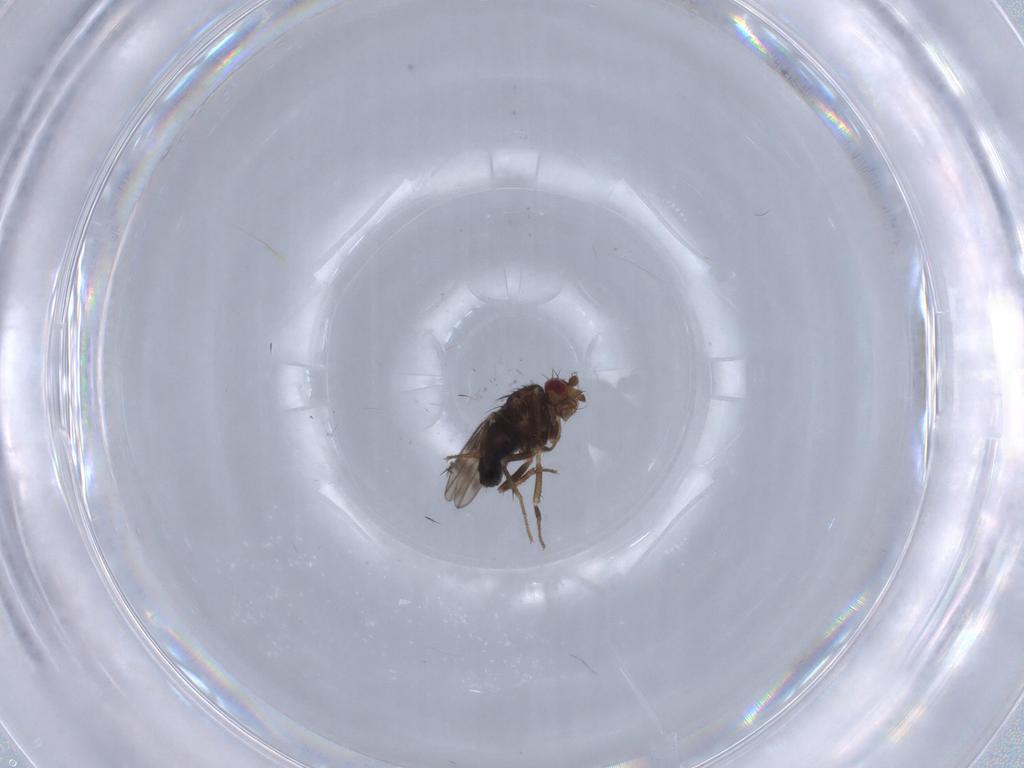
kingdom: Animalia
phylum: Arthropoda
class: Insecta
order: Diptera
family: Sphaeroceridae
